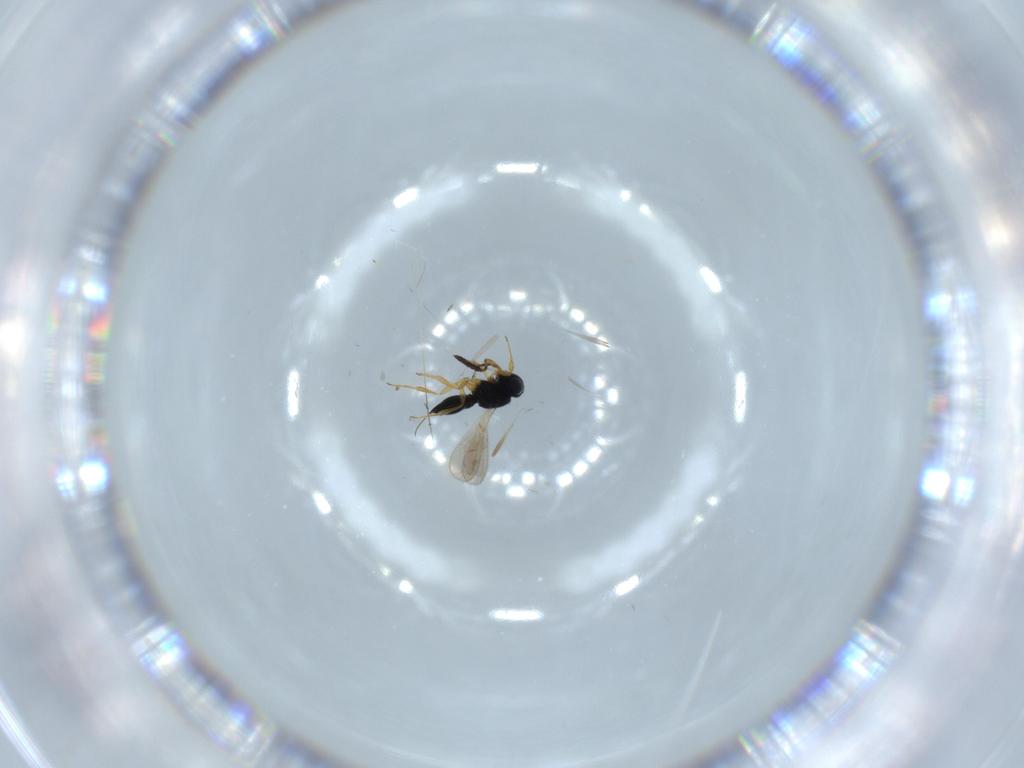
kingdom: Animalia
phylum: Arthropoda
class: Insecta
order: Hymenoptera
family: Scelionidae
